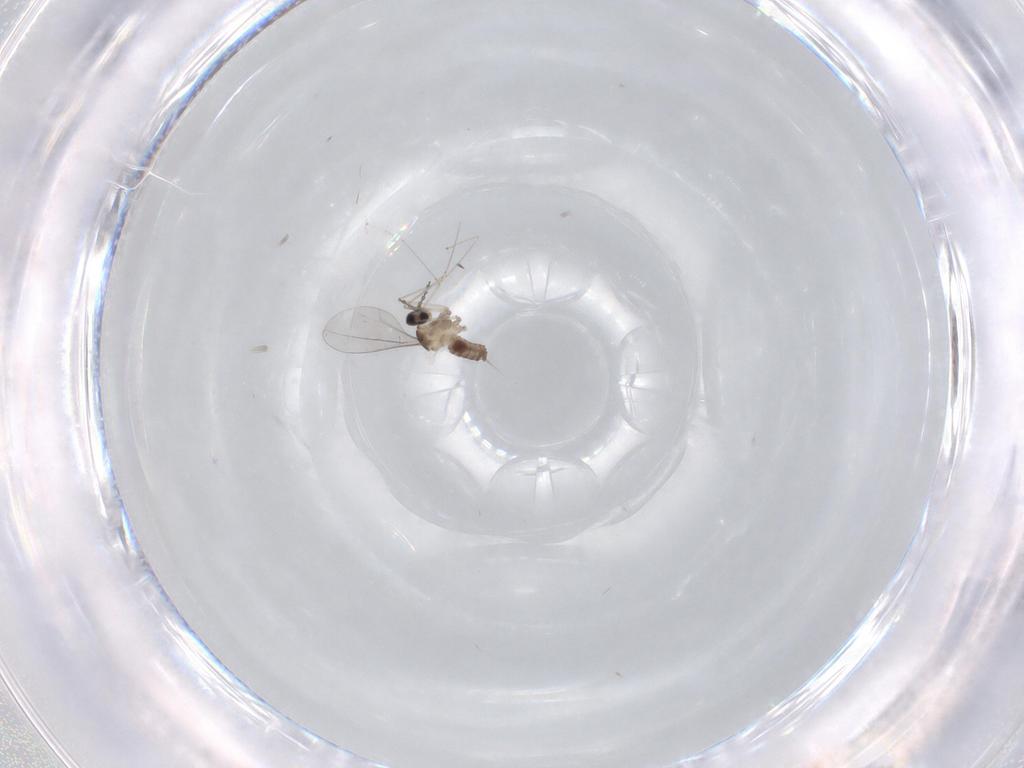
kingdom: Animalia
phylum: Arthropoda
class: Insecta
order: Diptera
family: Cecidomyiidae
